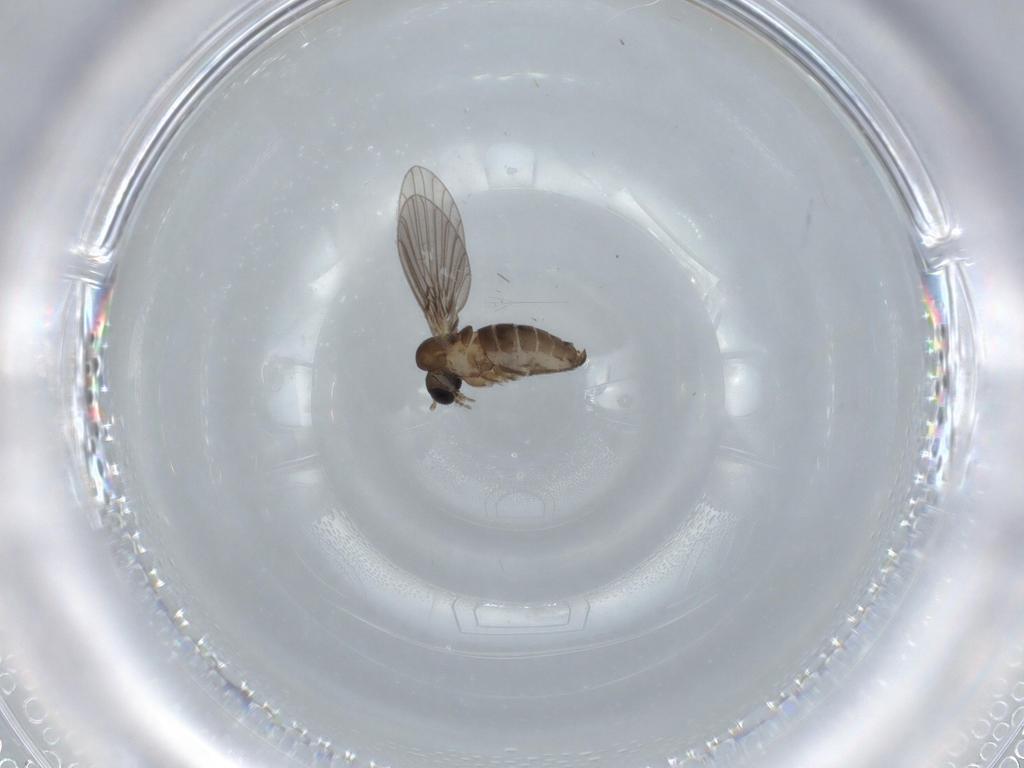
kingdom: Animalia
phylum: Arthropoda
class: Insecta
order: Diptera
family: Psychodidae
